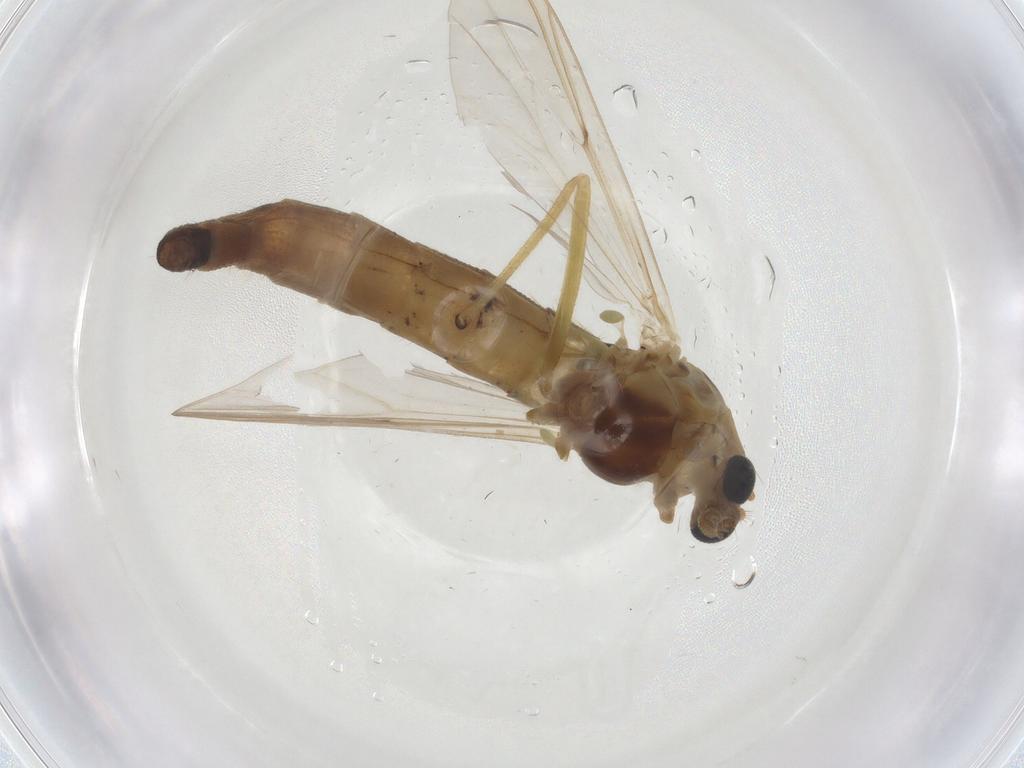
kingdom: Animalia
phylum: Arthropoda
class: Insecta
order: Diptera
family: Chironomidae
